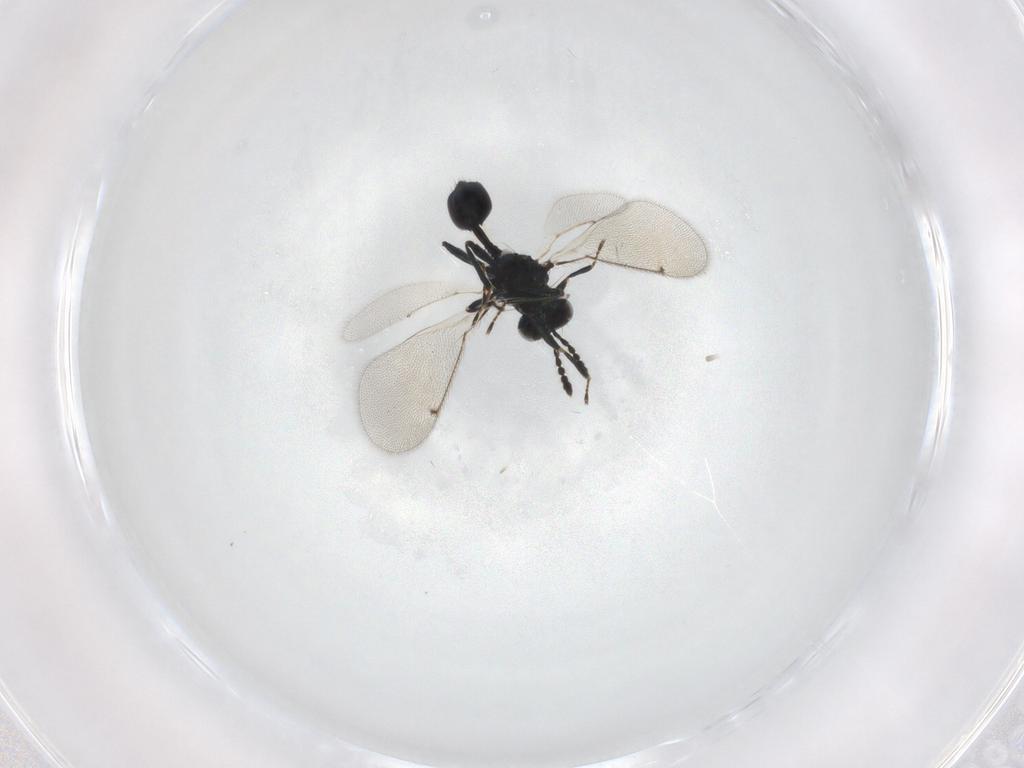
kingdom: Animalia
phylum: Arthropoda
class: Insecta
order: Hymenoptera
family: Eulophidae
